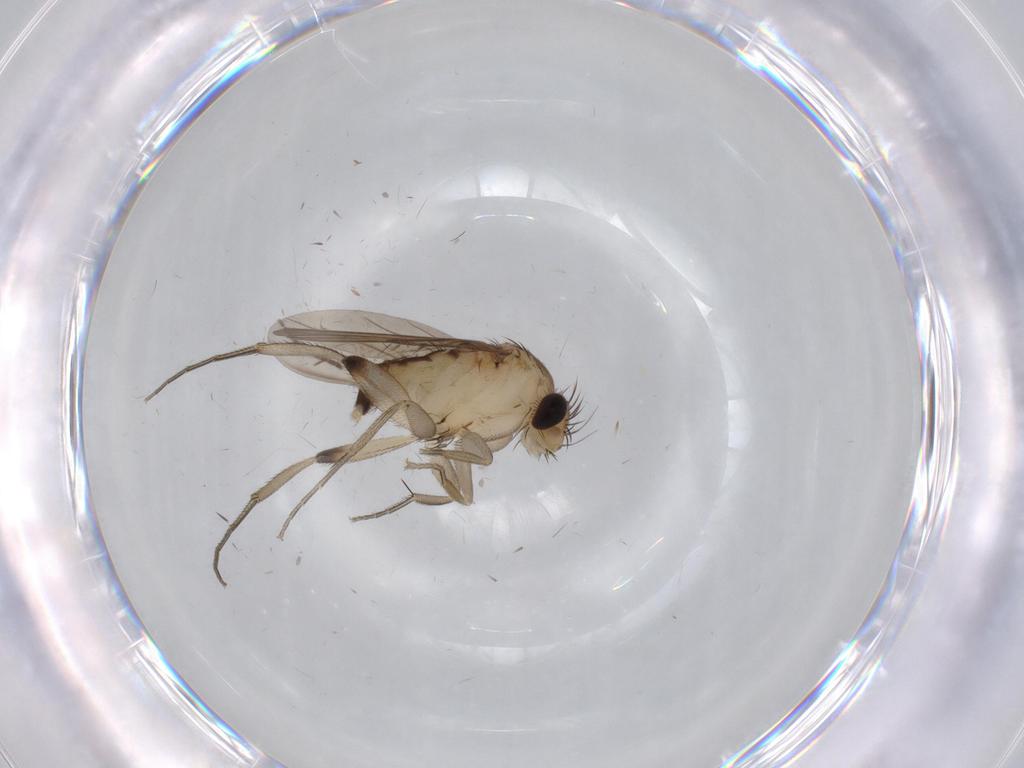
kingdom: Animalia
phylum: Arthropoda
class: Insecta
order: Diptera
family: Phoridae
